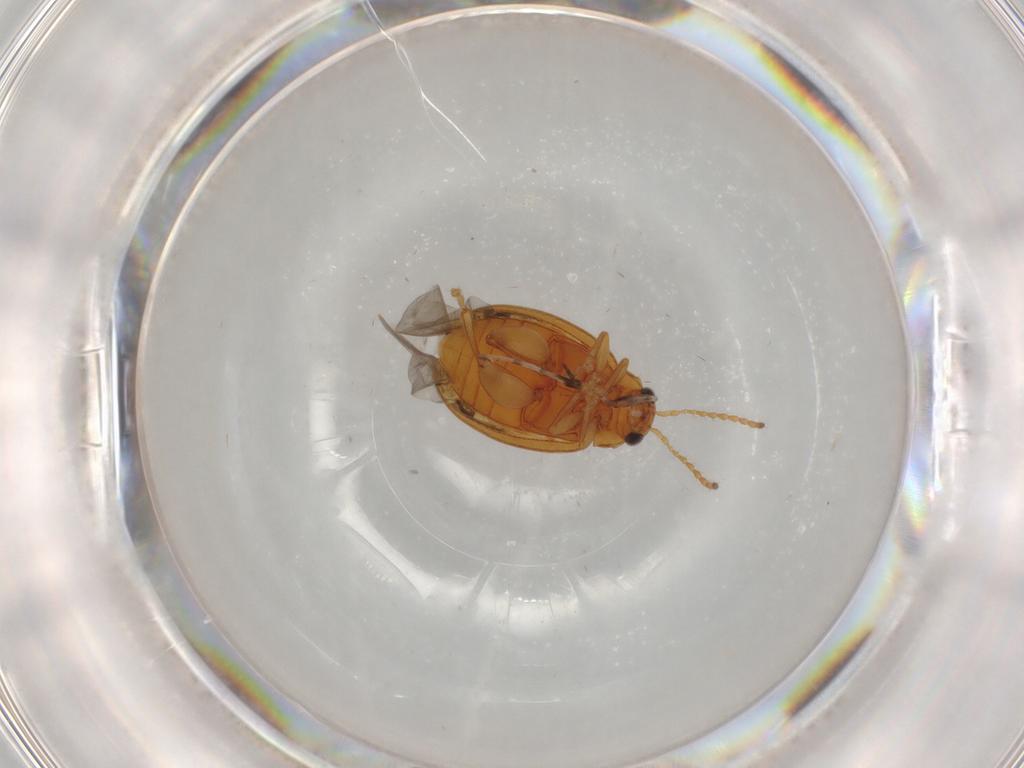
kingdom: Animalia
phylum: Arthropoda
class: Insecta
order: Coleoptera
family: Chrysomelidae
